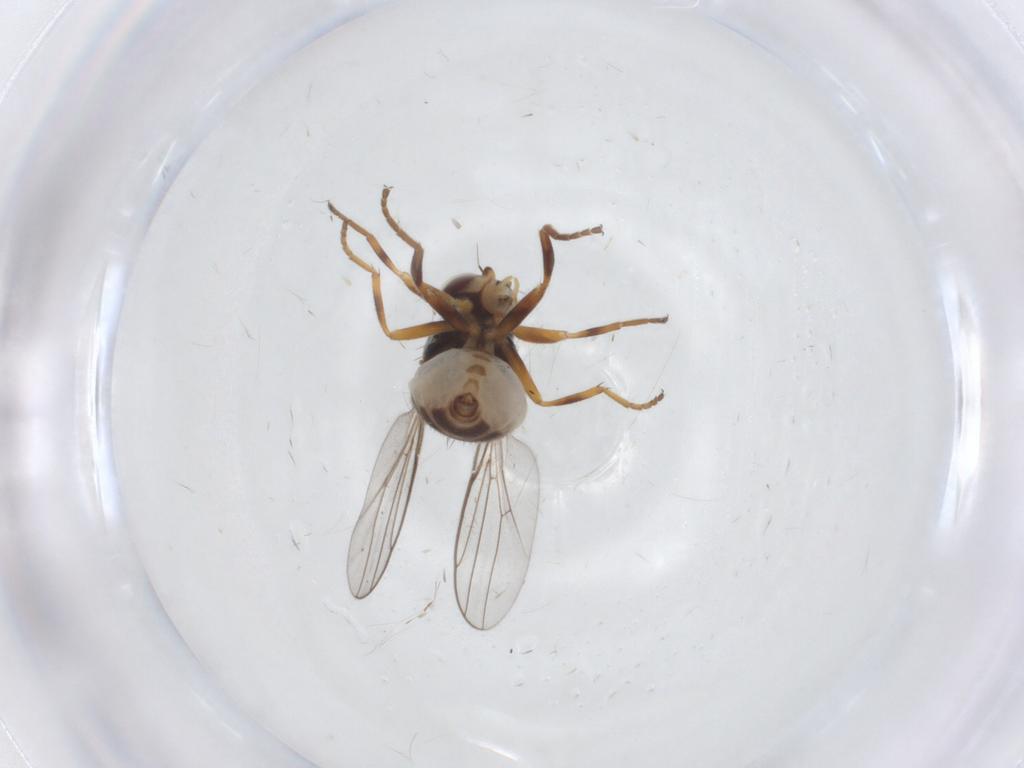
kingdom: Animalia
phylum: Arthropoda
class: Insecta
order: Diptera
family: Chloropidae
